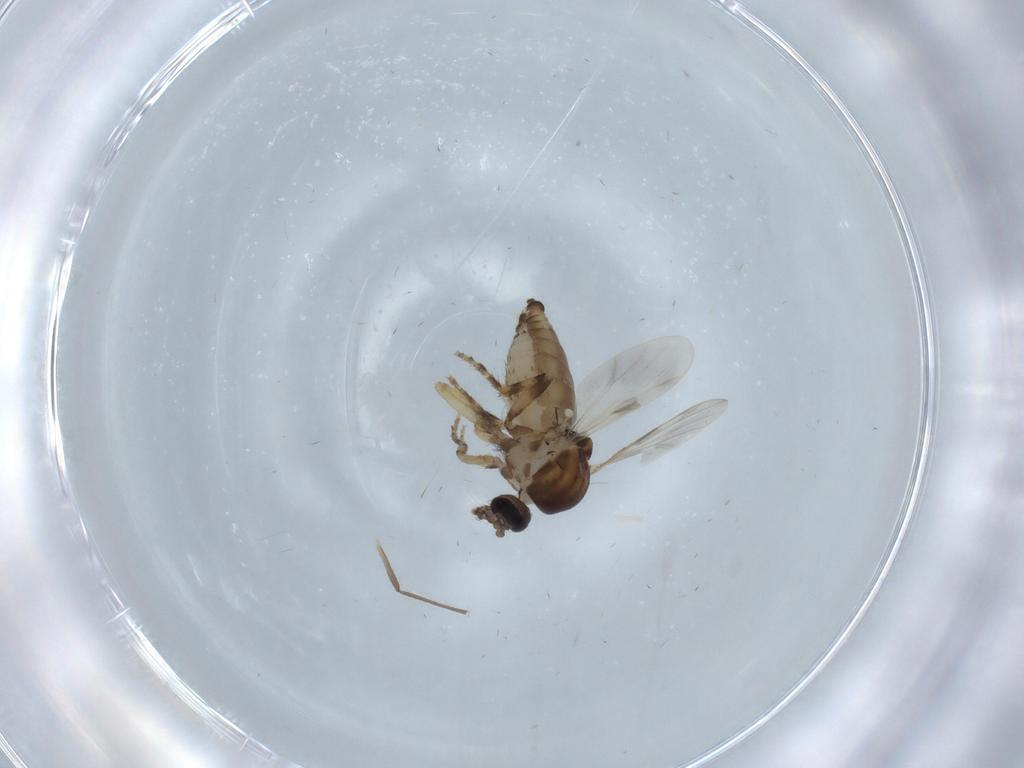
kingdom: Animalia
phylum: Arthropoda
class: Insecta
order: Diptera
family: Ceratopogonidae
